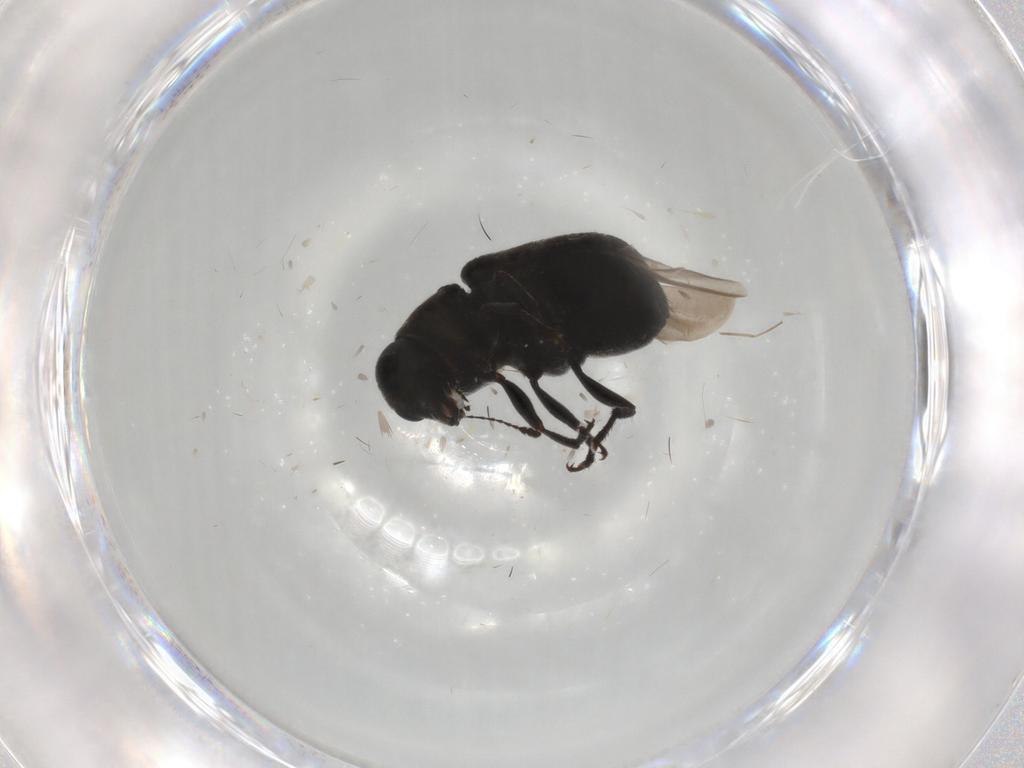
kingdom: Animalia
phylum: Arthropoda
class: Insecta
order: Coleoptera
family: Anthribidae
